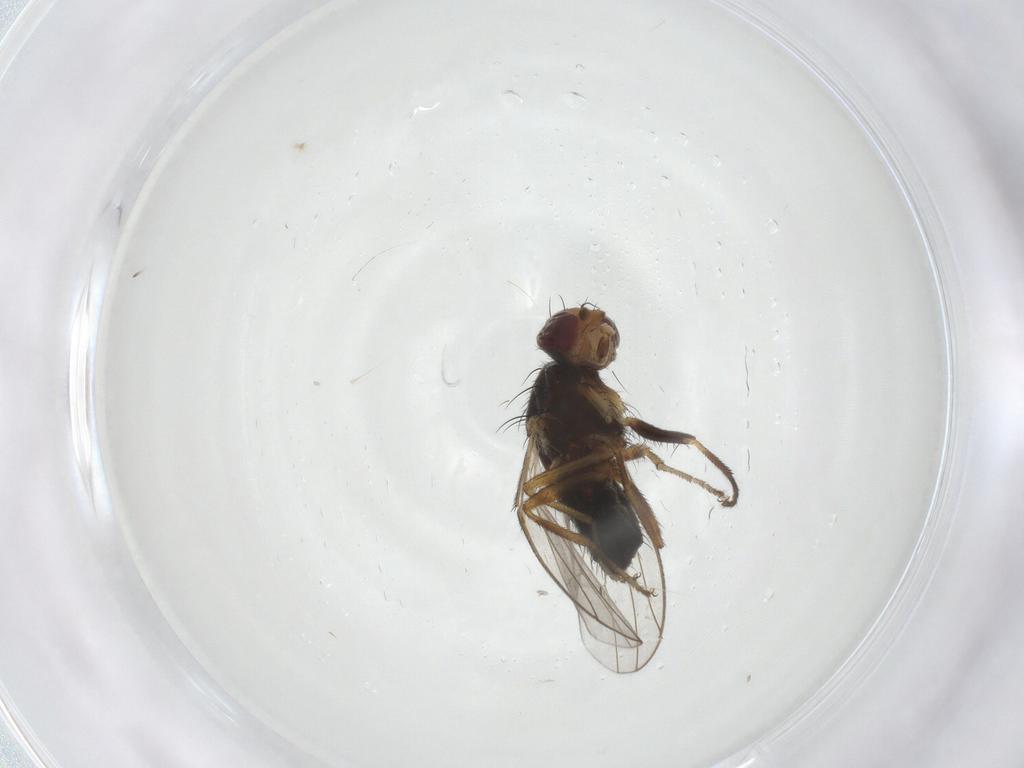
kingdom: Animalia
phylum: Arthropoda
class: Insecta
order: Diptera
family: Heleomyzidae
